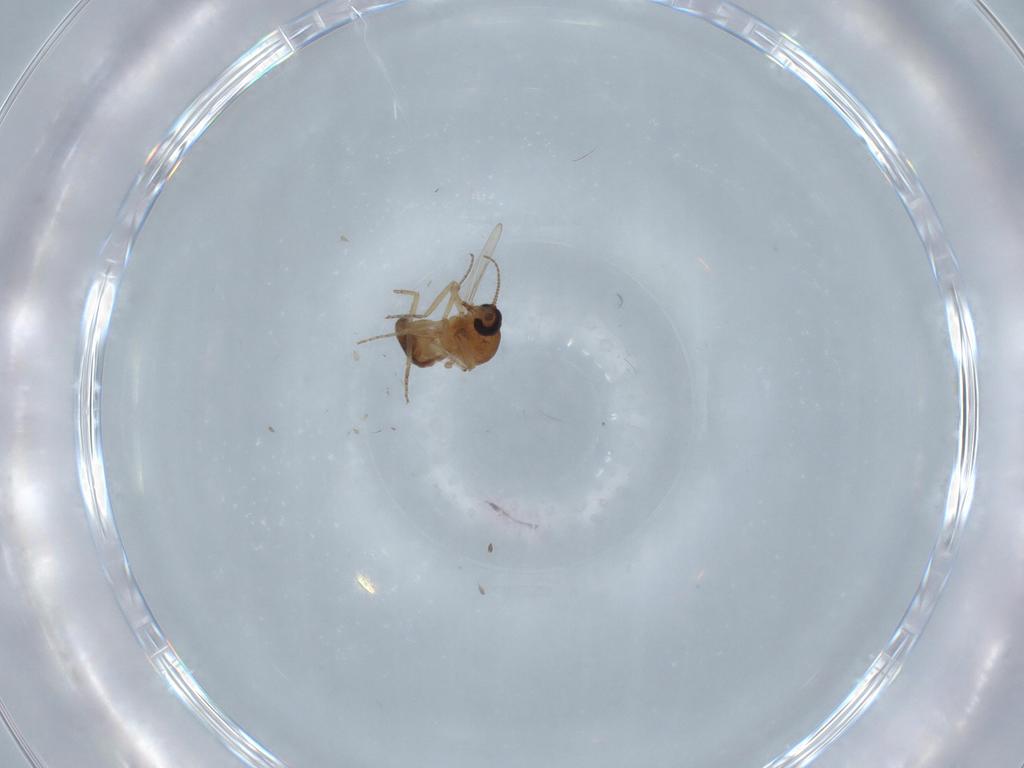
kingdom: Animalia
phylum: Arthropoda
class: Insecta
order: Diptera
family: Ceratopogonidae
